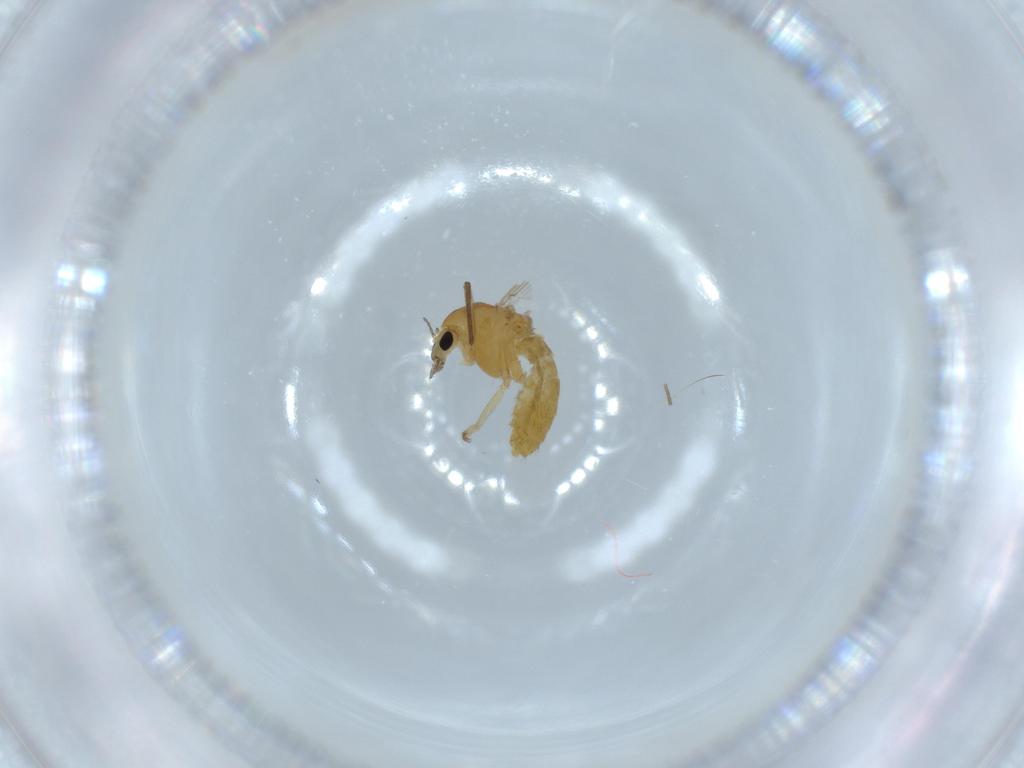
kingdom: Animalia
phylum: Arthropoda
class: Insecta
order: Diptera
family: Chironomidae
